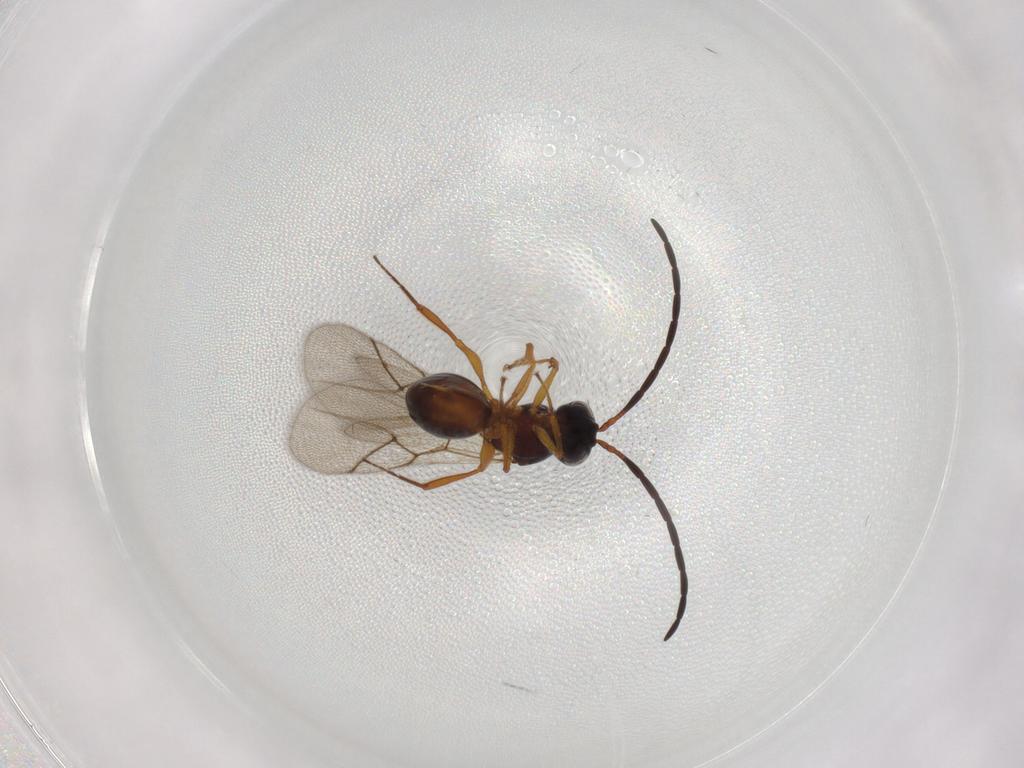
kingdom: Animalia
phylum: Arthropoda
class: Insecta
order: Hymenoptera
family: Figitidae
